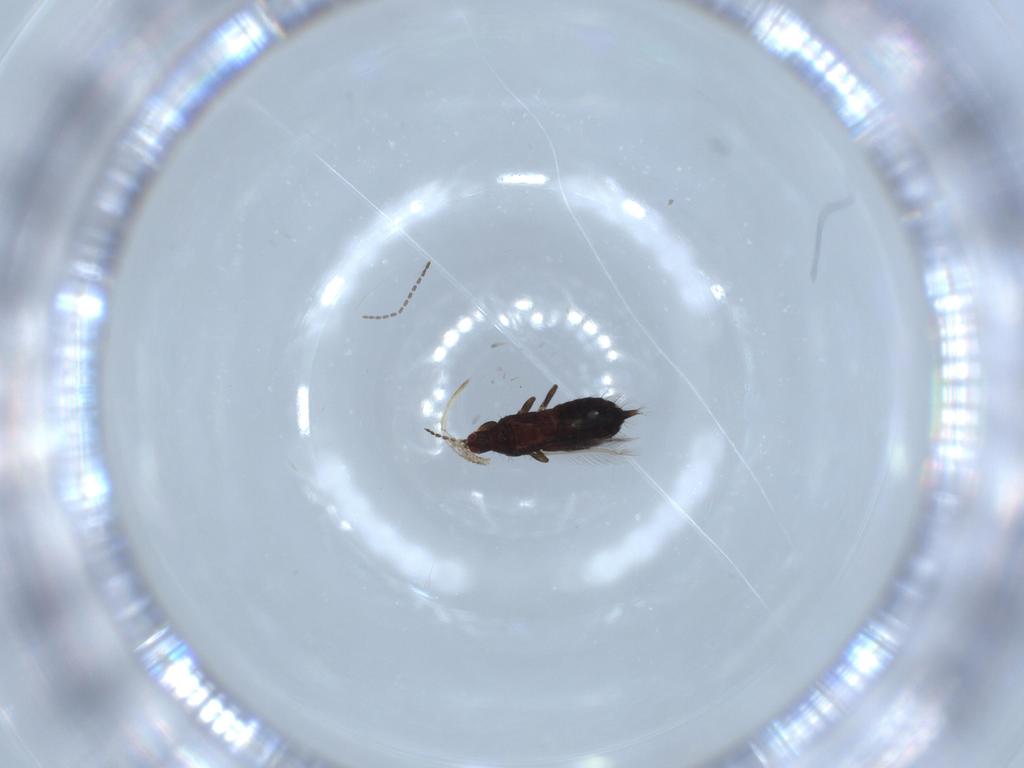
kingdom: Animalia
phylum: Arthropoda
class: Insecta
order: Thysanoptera
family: Phlaeothripidae
